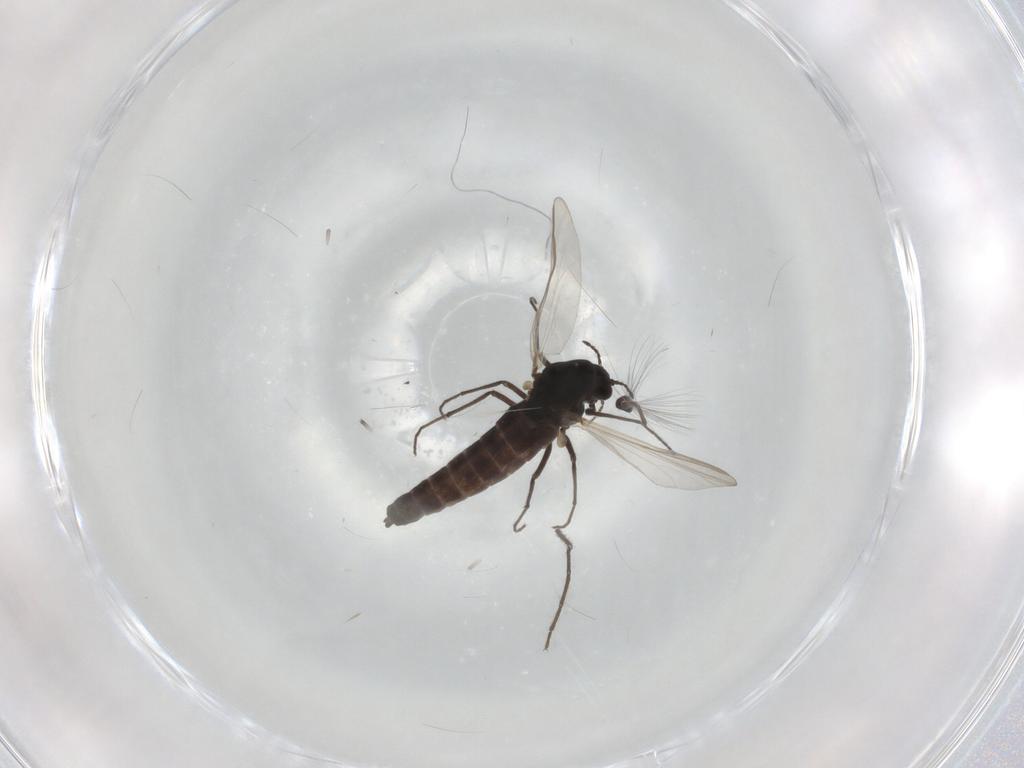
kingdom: Animalia
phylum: Arthropoda
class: Insecta
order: Diptera
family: Chironomidae
